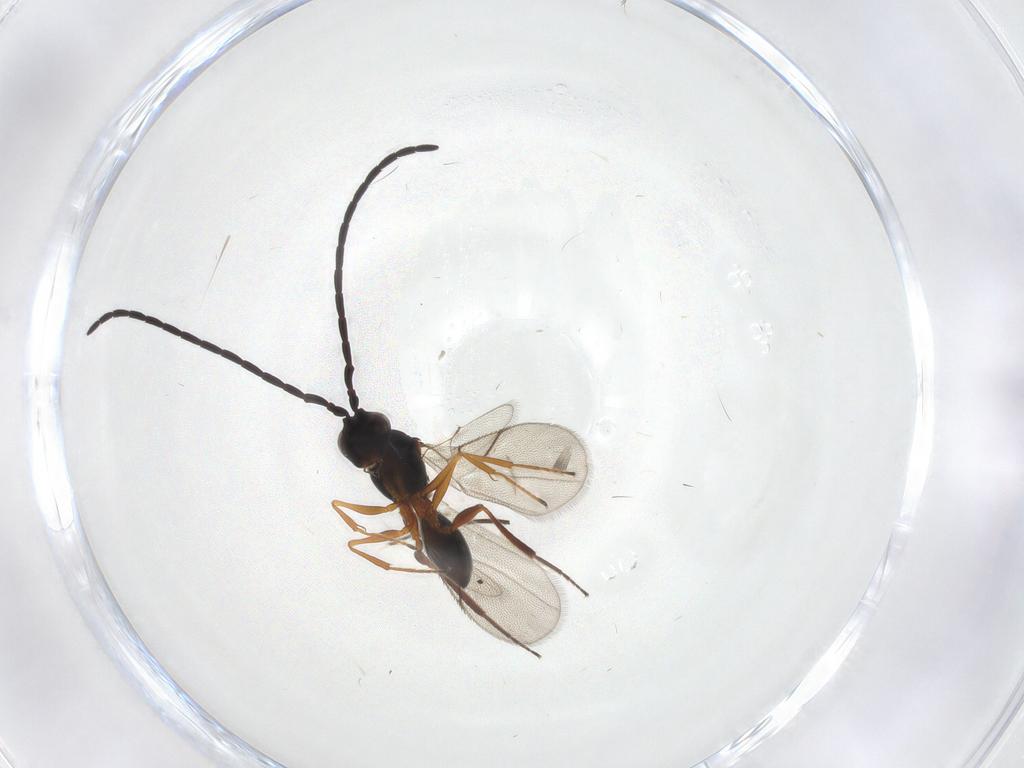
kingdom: Animalia
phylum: Arthropoda
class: Insecta
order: Hymenoptera
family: Figitidae
